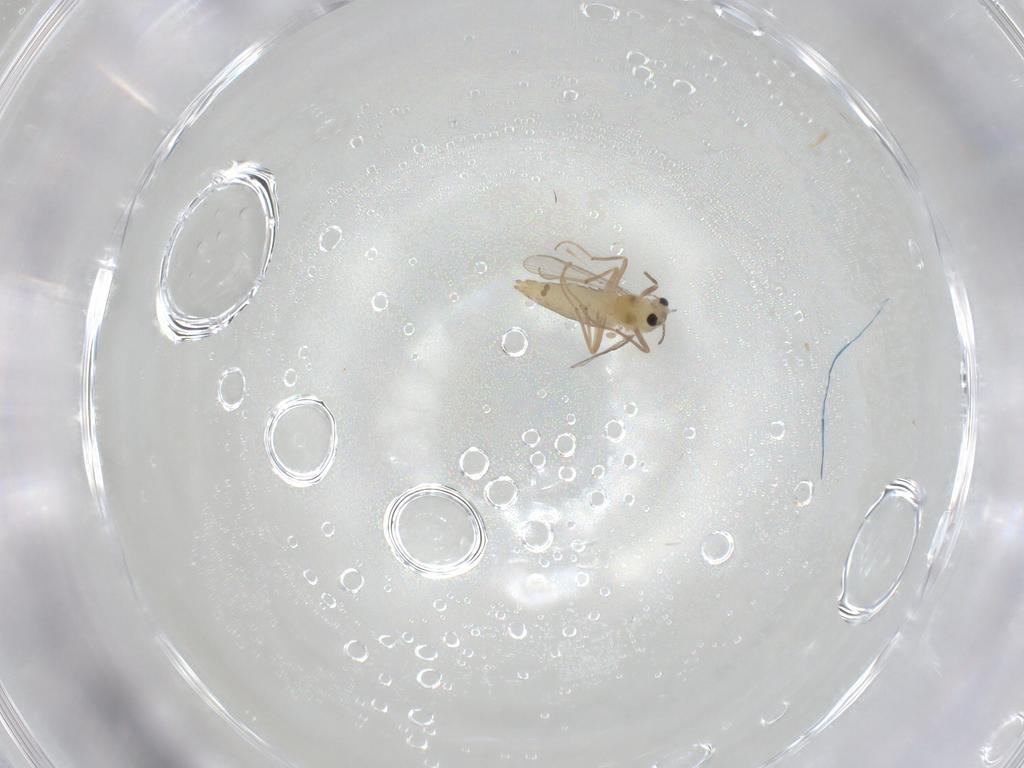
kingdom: Animalia
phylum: Arthropoda
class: Insecta
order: Diptera
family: Chironomidae
